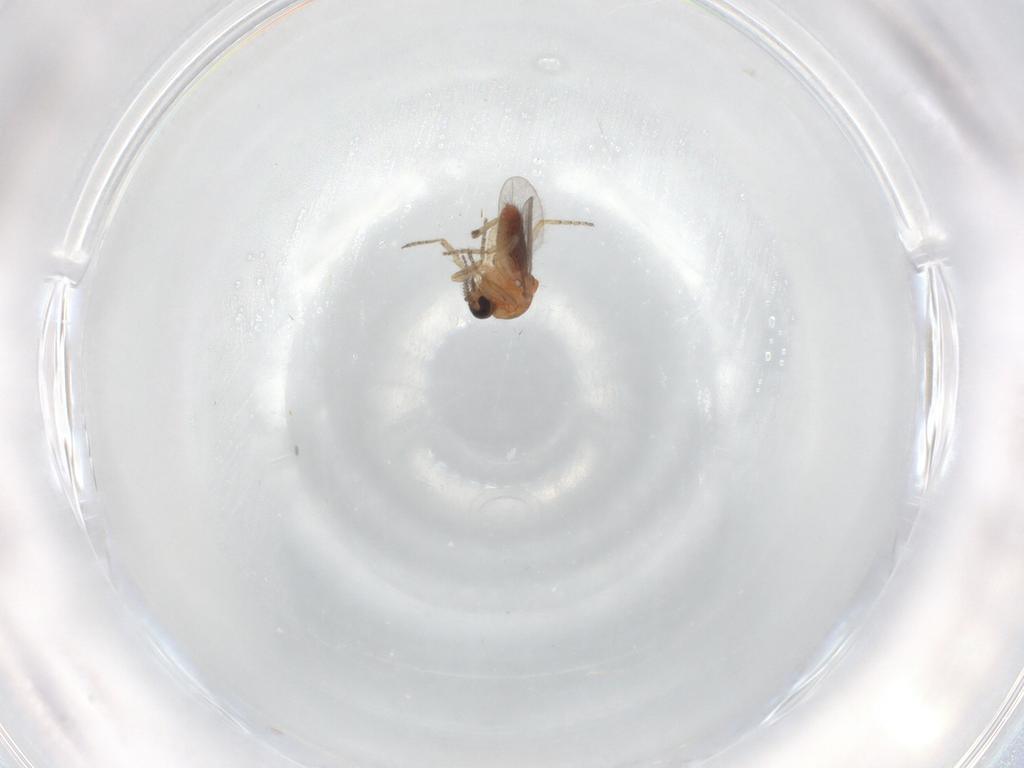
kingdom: Animalia
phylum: Arthropoda
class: Insecta
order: Diptera
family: Ceratopogonidae
